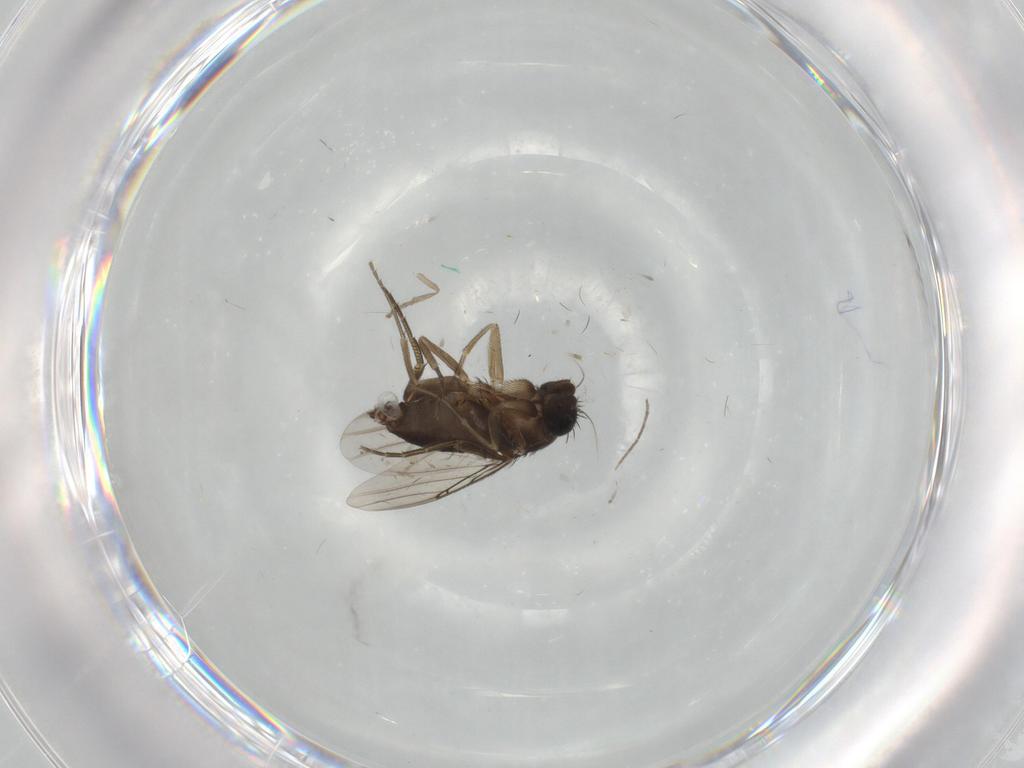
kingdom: Animalia
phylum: Arthropoda
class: Insecta
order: Diptera
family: Phoridae
